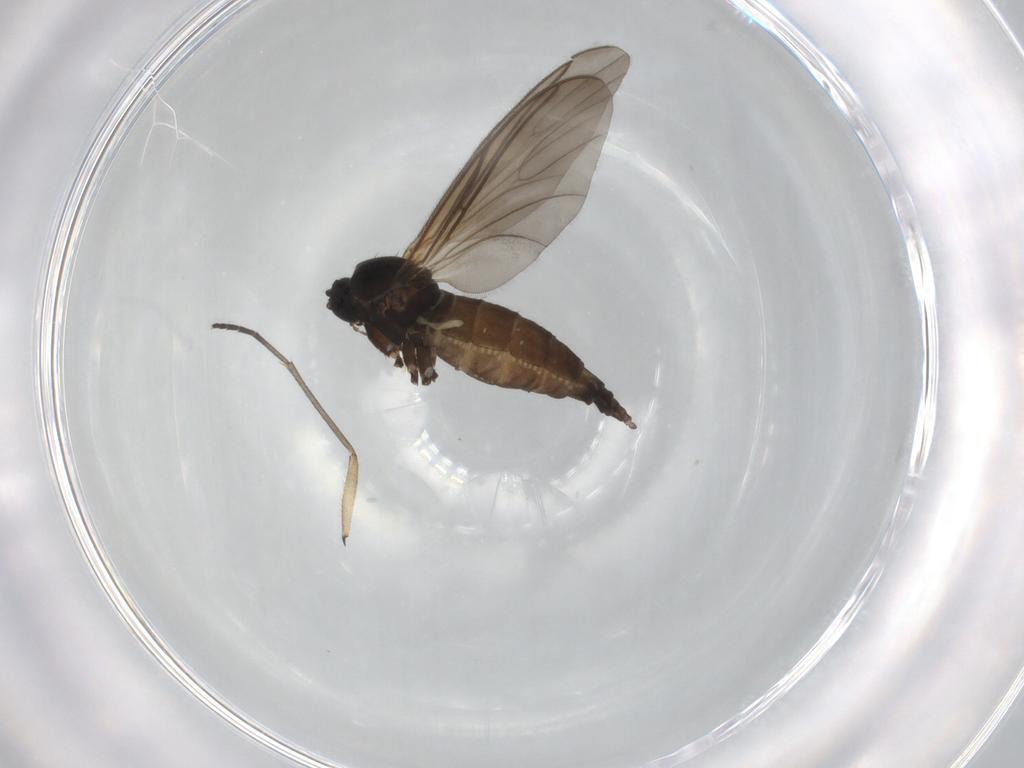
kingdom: Animalia
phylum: Arthropoda
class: Insecta
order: Diptera
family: Sciaridae
